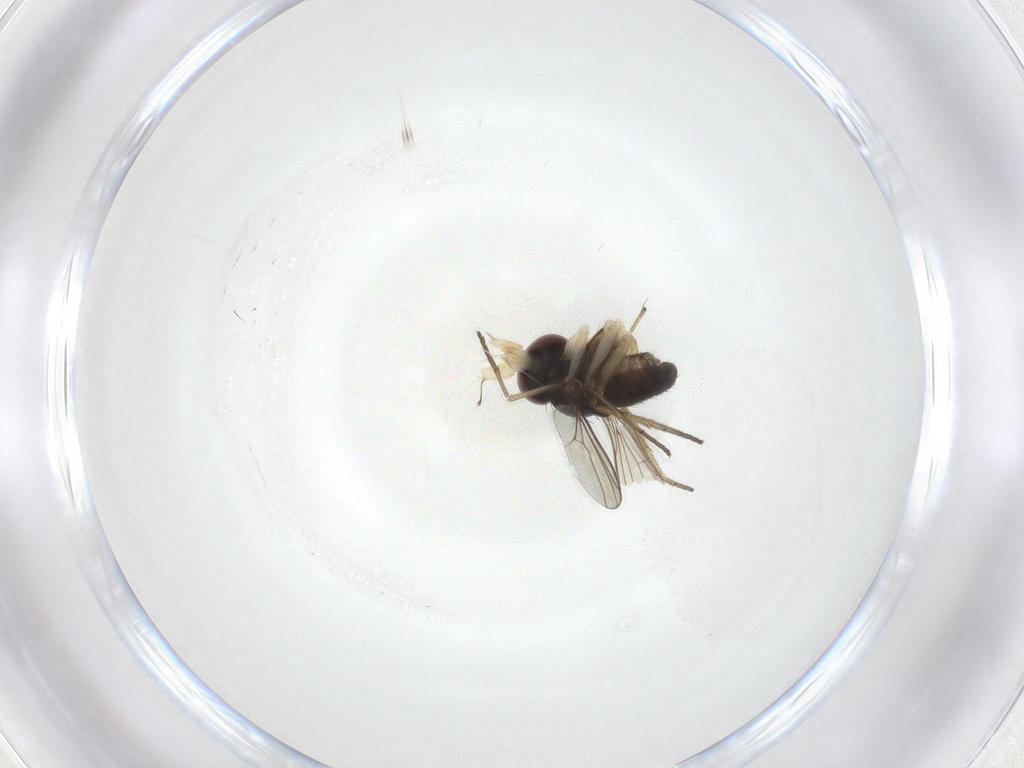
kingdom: Animalia
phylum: Arthropoda
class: Insecta
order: Diptera
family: Dolichopodidae
